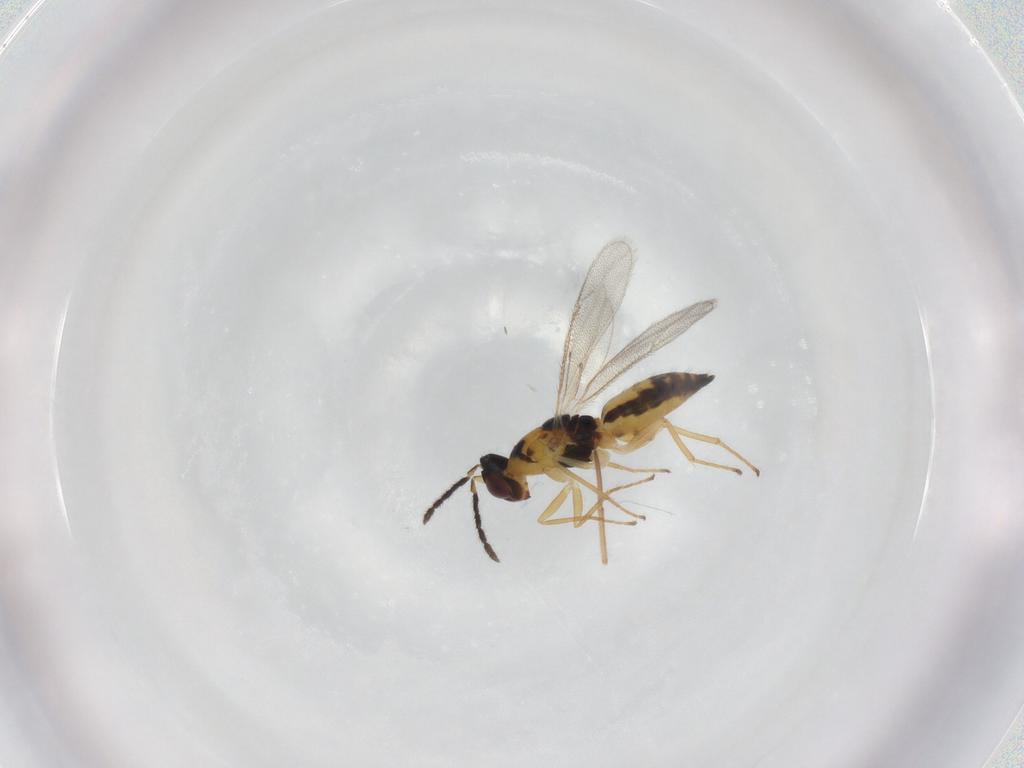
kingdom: Animalia
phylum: Arthropoda
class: Insecta
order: Hymenoptera
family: Eulophidae
